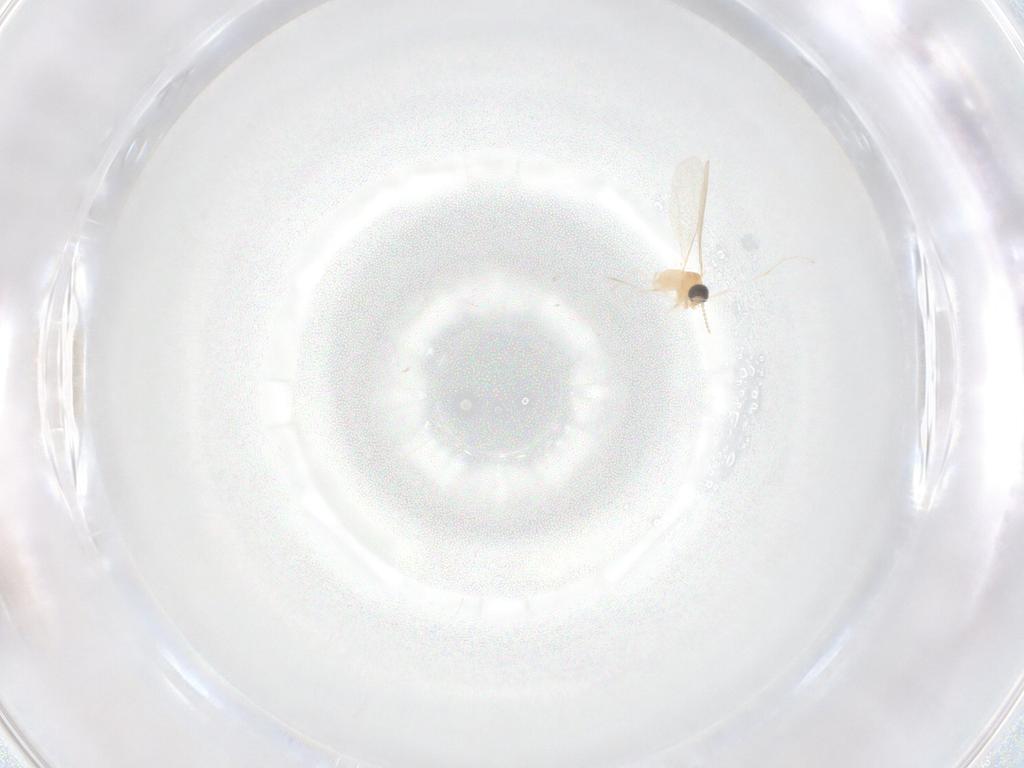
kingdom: Animalia
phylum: Arthropoda
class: Insecta
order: Diptera
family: Cecidomyiidae
